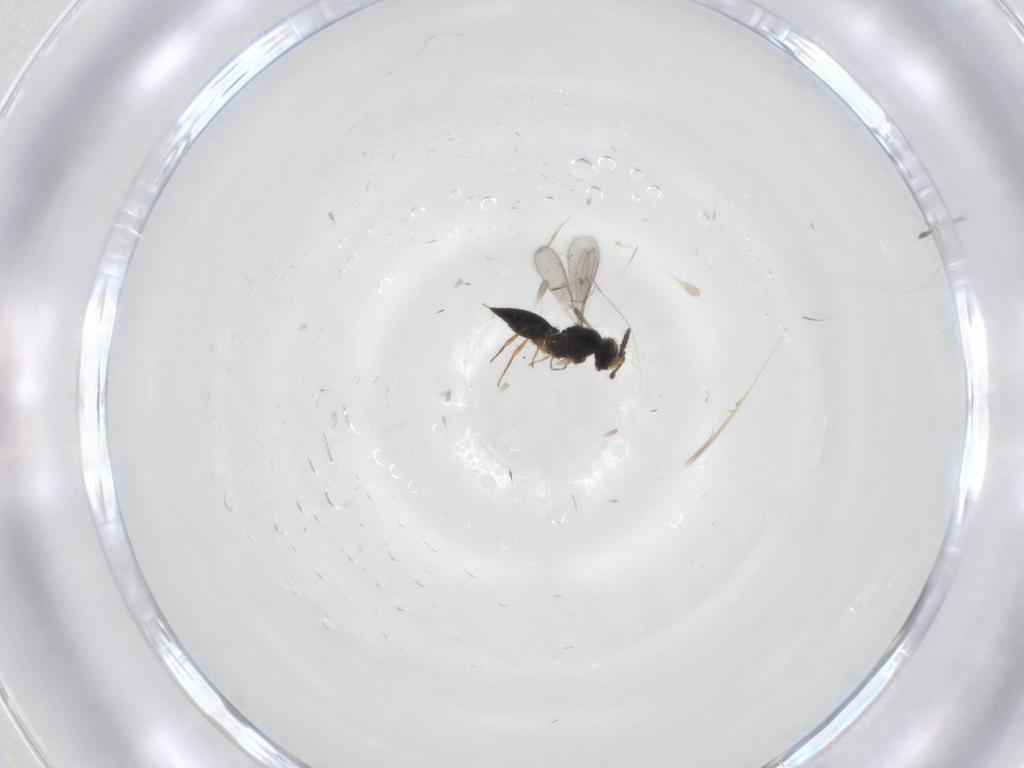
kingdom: Animalia
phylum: Arthropoda
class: Insecta
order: Hymenoptera
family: Scelionidae
